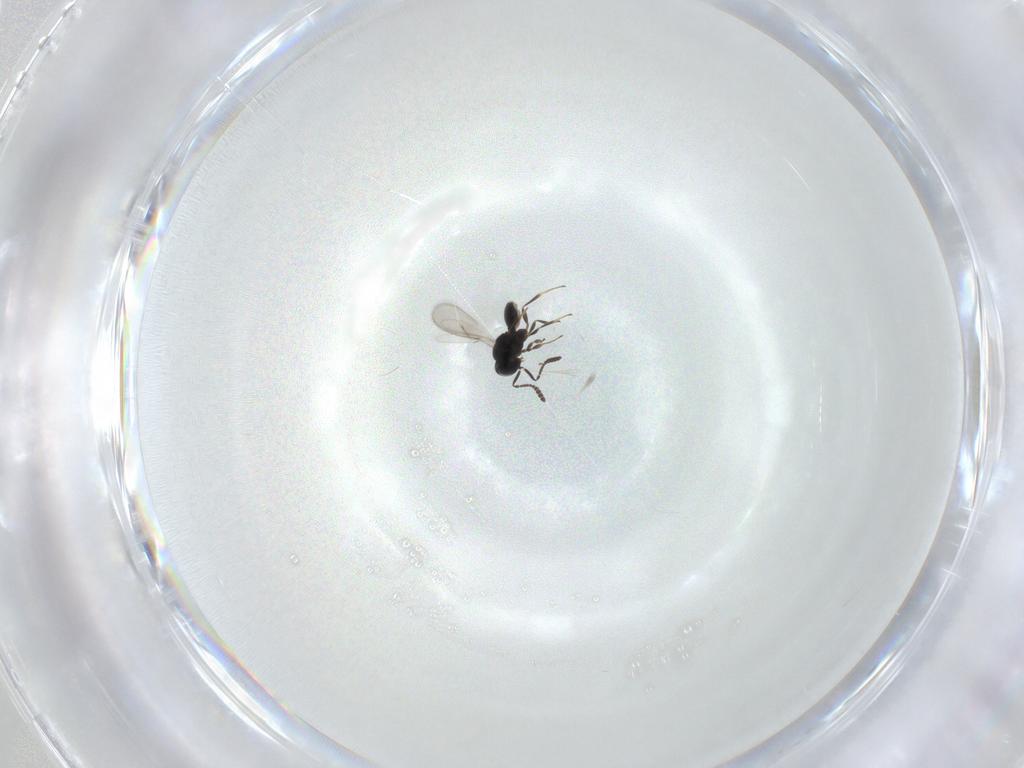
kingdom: Animalia
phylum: Arthropoda
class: Insecta
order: Hymenoptera
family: Scelionidae
